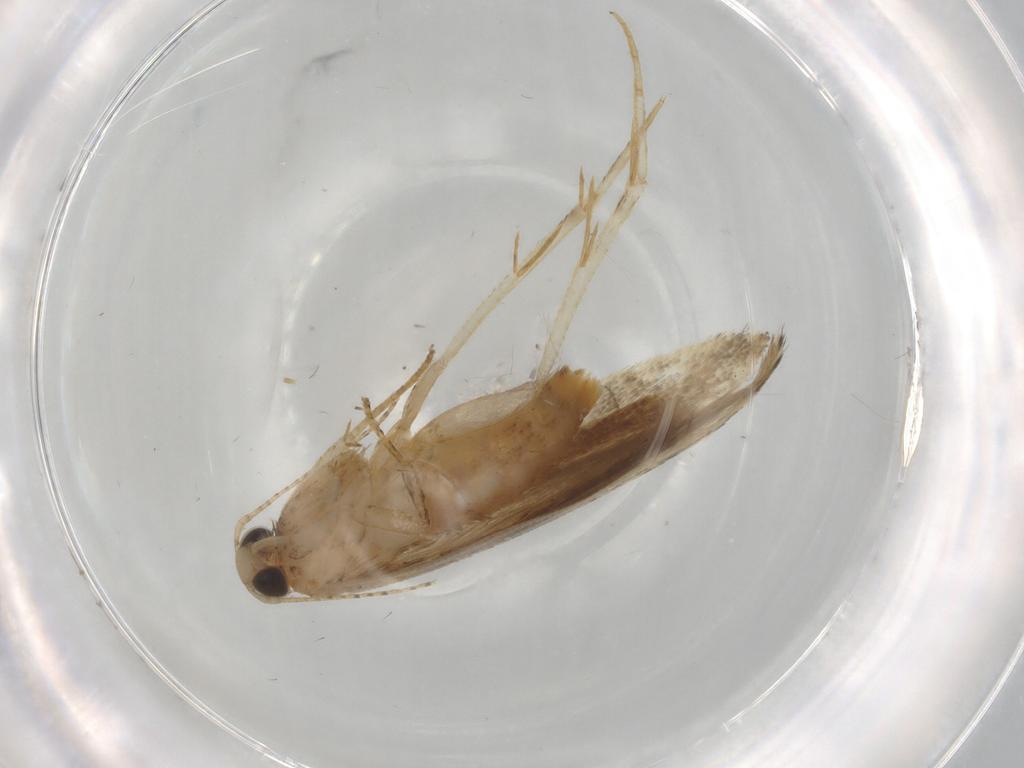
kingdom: Animalia
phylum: Arthropoda
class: Insecta
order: Lepidoptera
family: Gelechiidae
